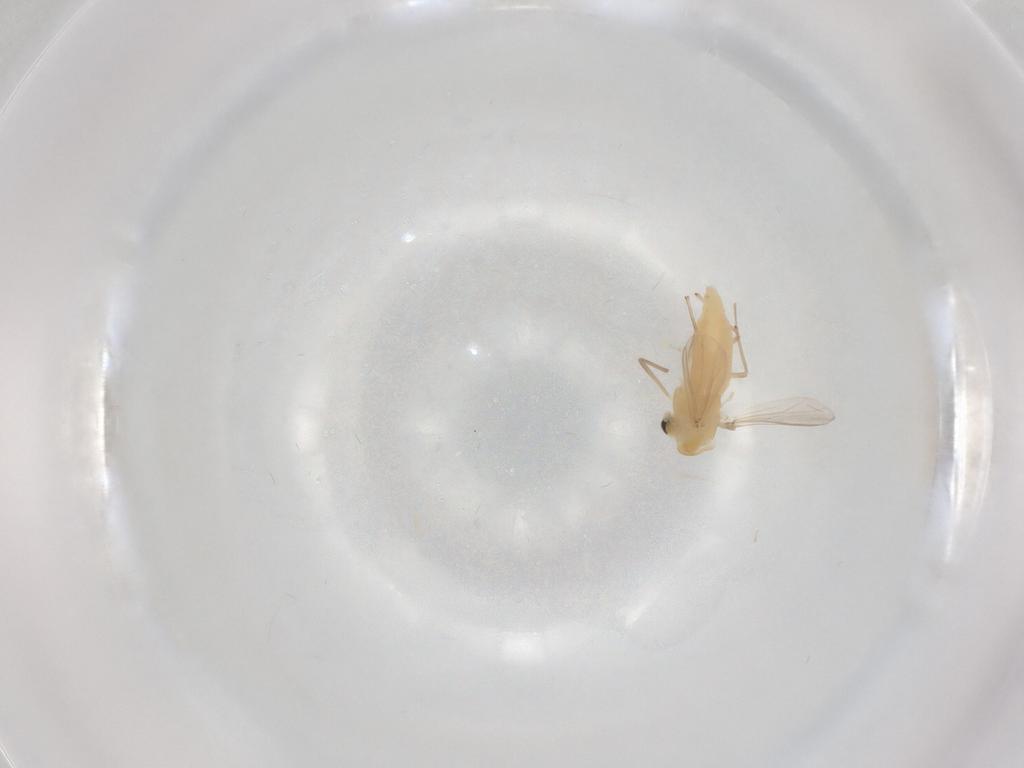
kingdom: Animalia
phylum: Arthropoda
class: Insecta
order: Diptera
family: Chironomidae
